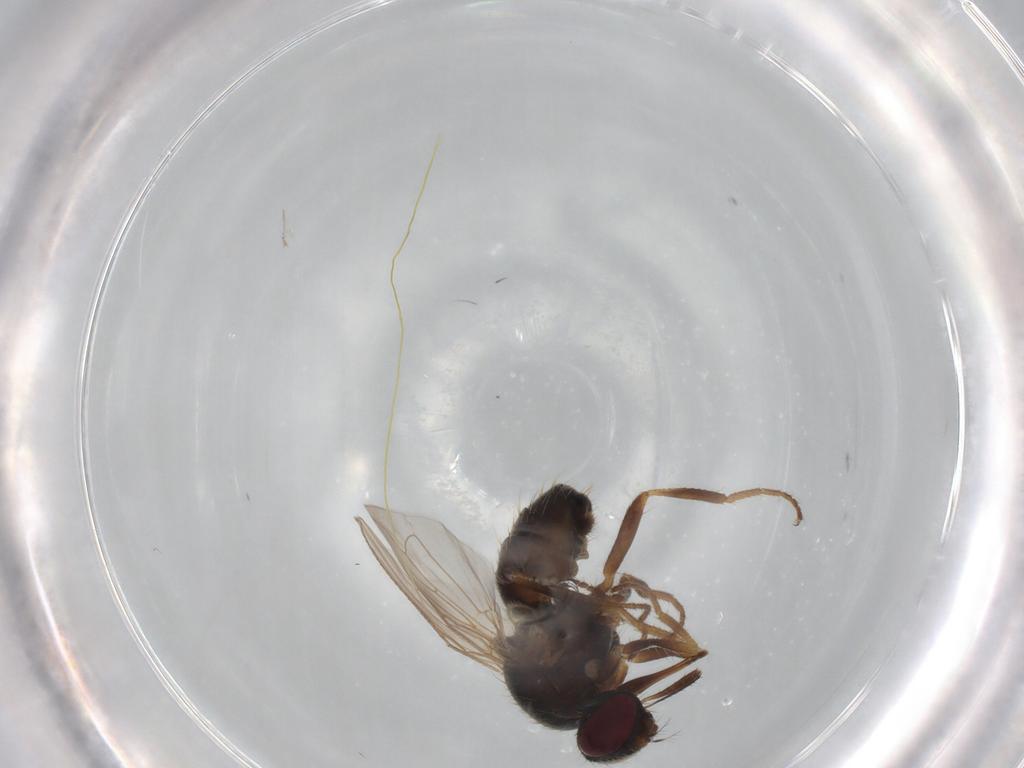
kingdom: Animalia
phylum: Arthropoda
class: Insecta
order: Diptera
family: Muscidae
